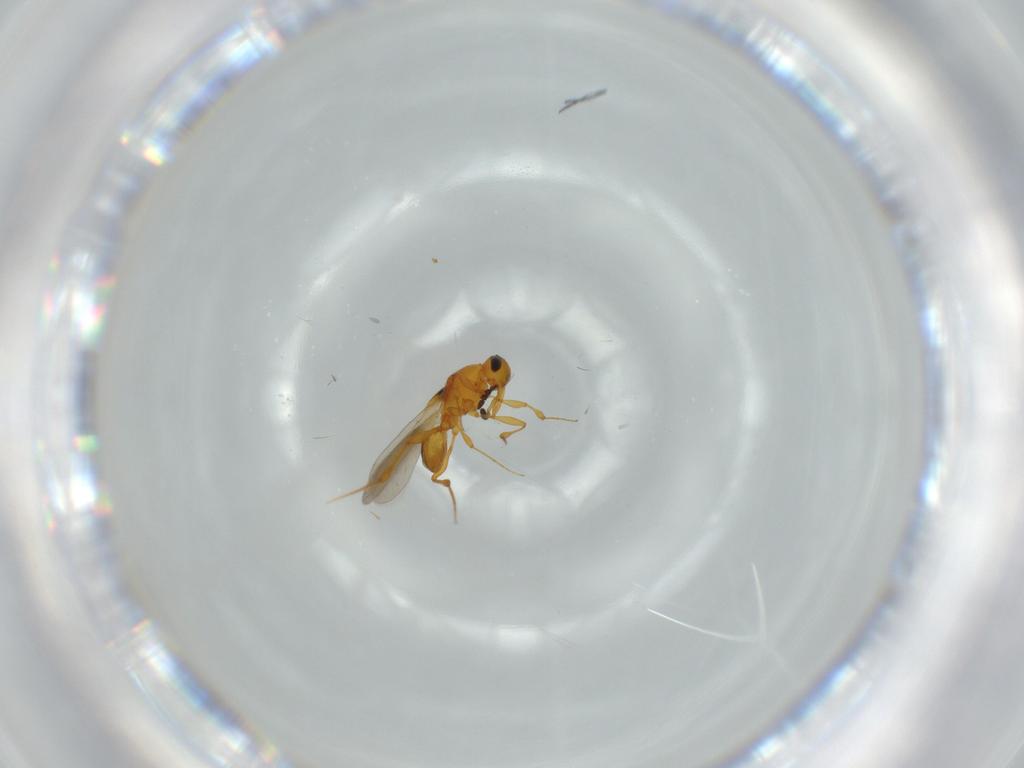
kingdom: Animalia
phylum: Arthropoda
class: Insecta
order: Hymenoptera
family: Platygastridae
